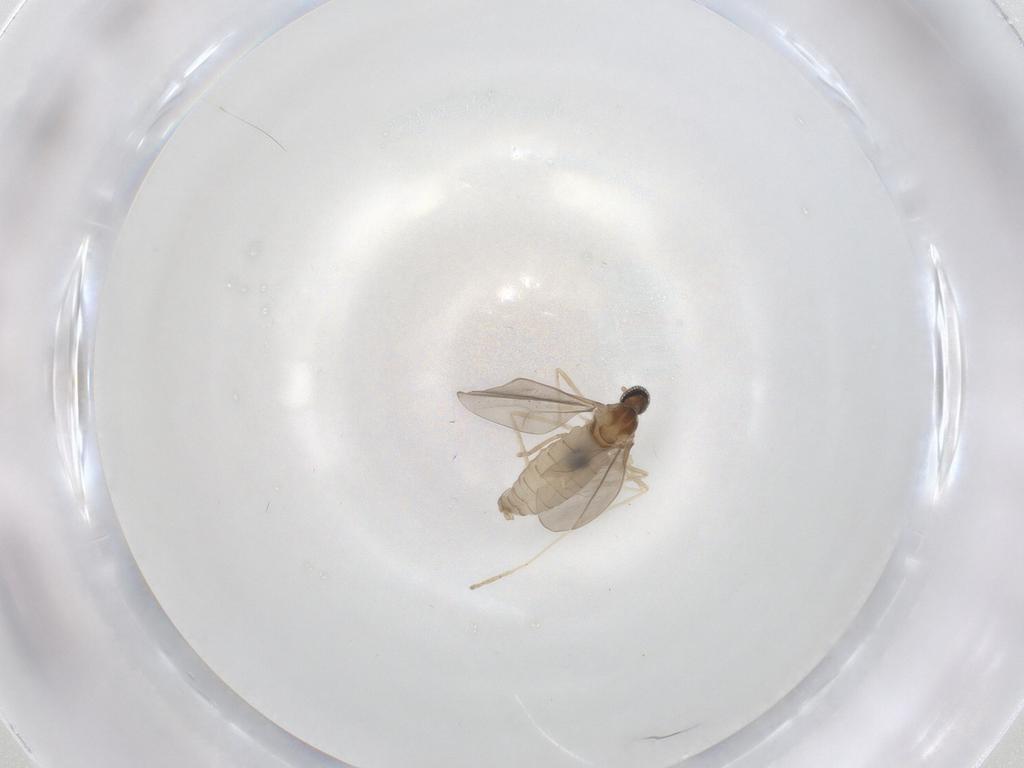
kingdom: Animalia
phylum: Arthropoda
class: Insecta
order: Diptera
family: Cecidomyiidae
